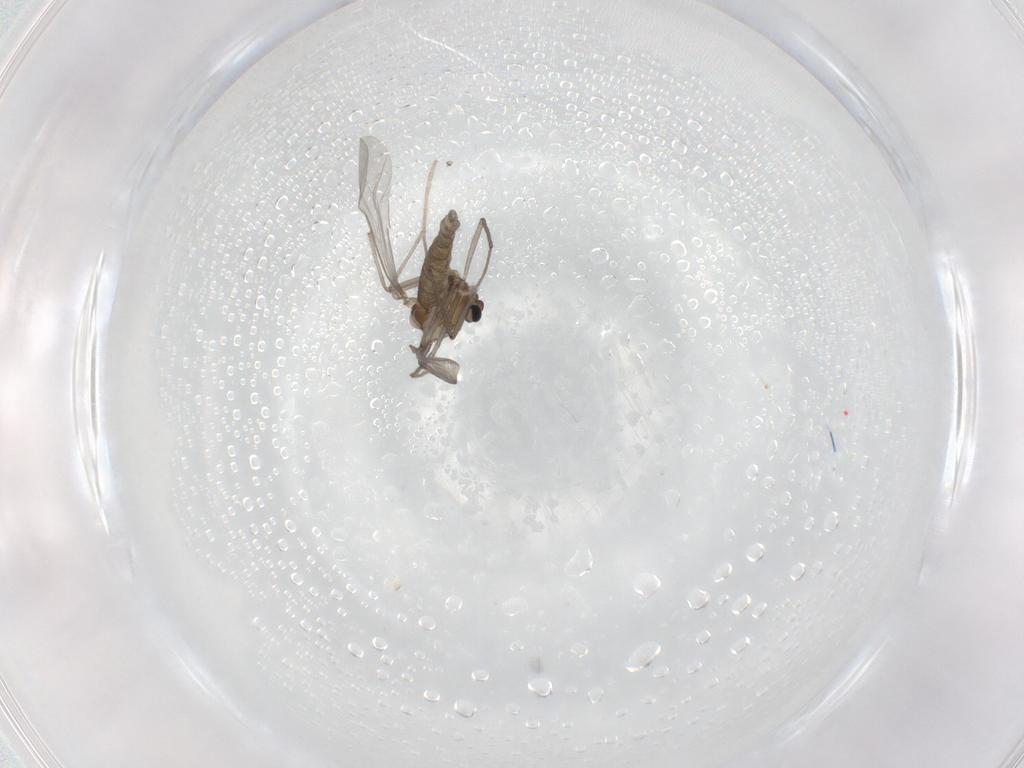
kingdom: Animalia
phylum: Arthropoda
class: Insecta
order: Diptera
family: Chironomidae
